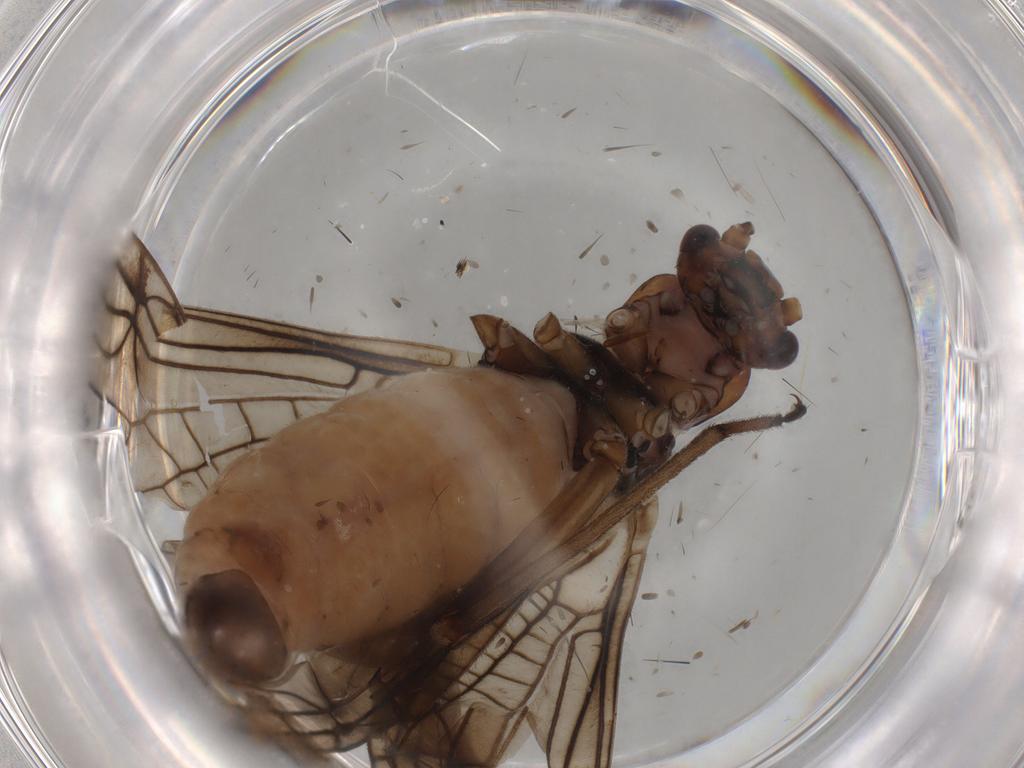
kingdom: Animalia
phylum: Arthropoda
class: Insecta
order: Plecoptera
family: Nemouridae
